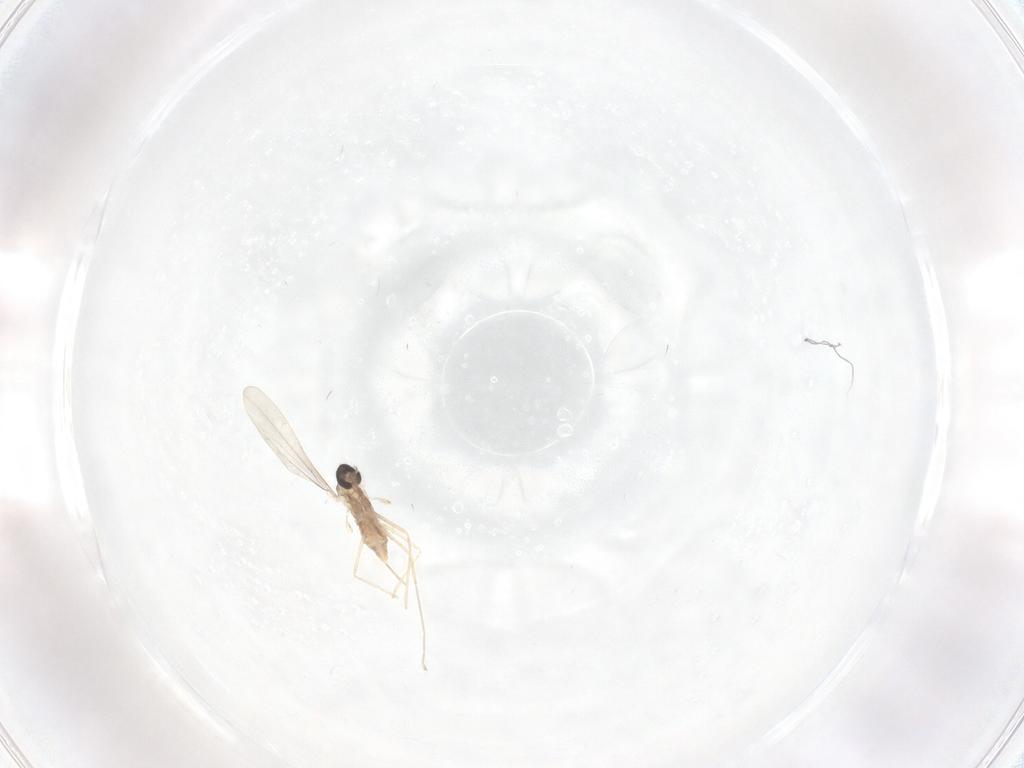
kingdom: Animalia
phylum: Arthropoda
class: Insecta
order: Diptera
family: Cecidomyiidae
